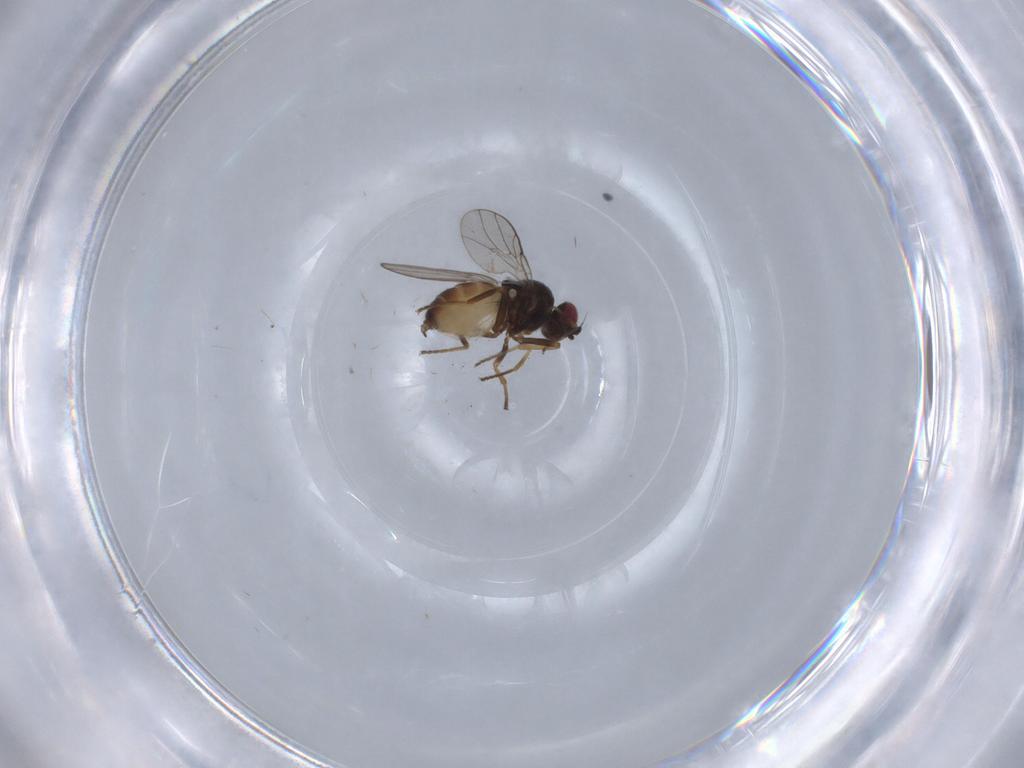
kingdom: Animalia
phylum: Arthropoda
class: Insecta
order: Diptera
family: Chloropidae
